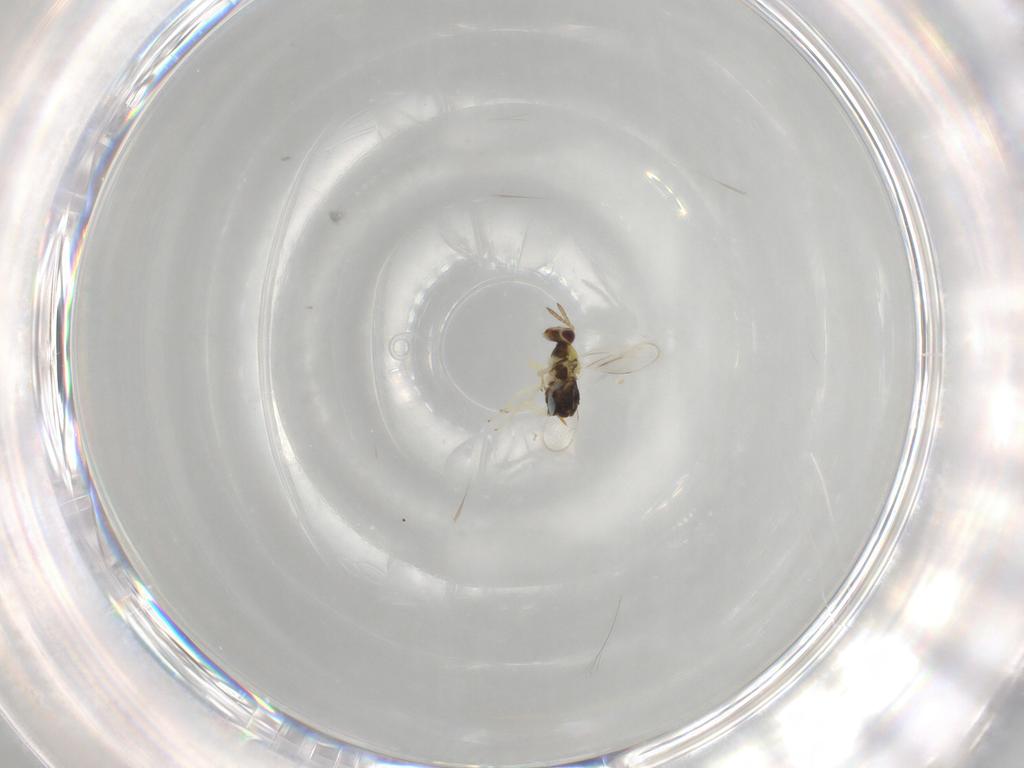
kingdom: Animalia
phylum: Arthropoda
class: Insecta
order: Hymenoptera
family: Aphelinidae
